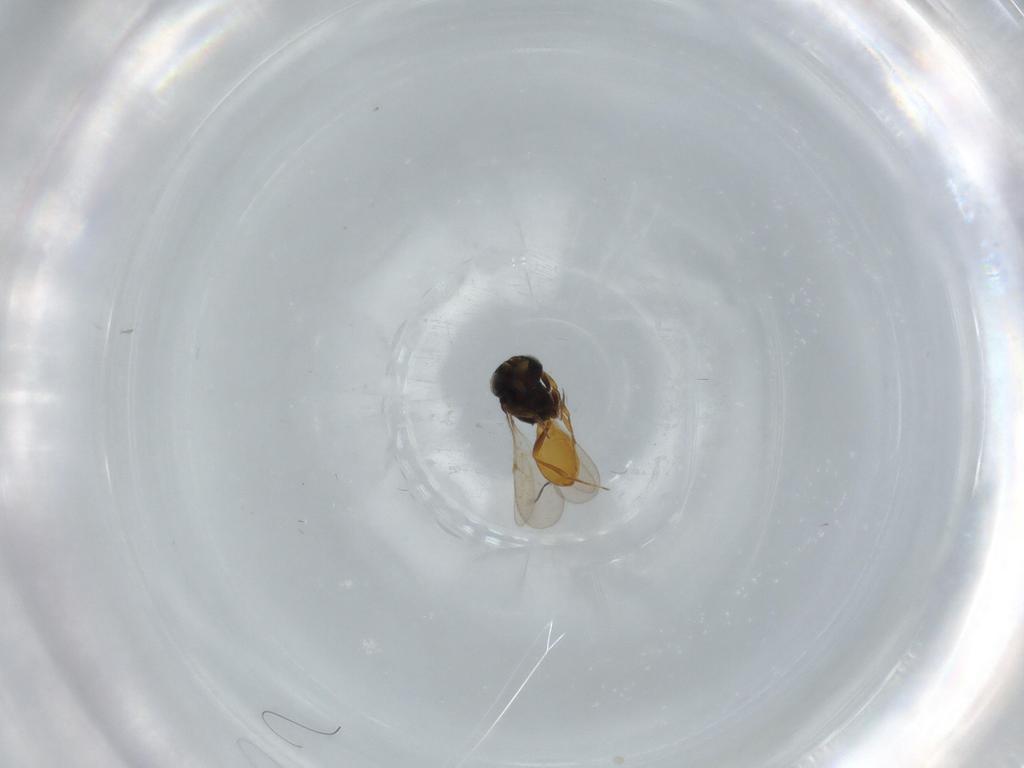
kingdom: Animalia
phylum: Arthropoda
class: Insecta
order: Hymenoptera
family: Scelionidae
